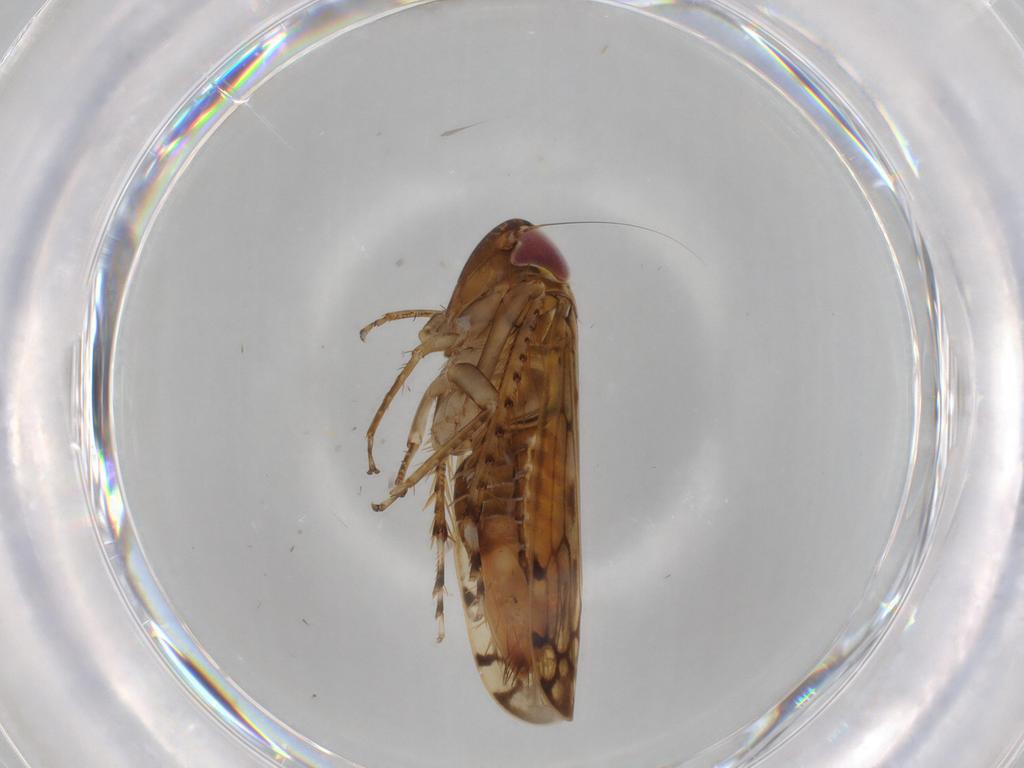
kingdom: Animalia
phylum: Arthropoda
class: Insecta
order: Hemiptera
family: Cicadellidae
